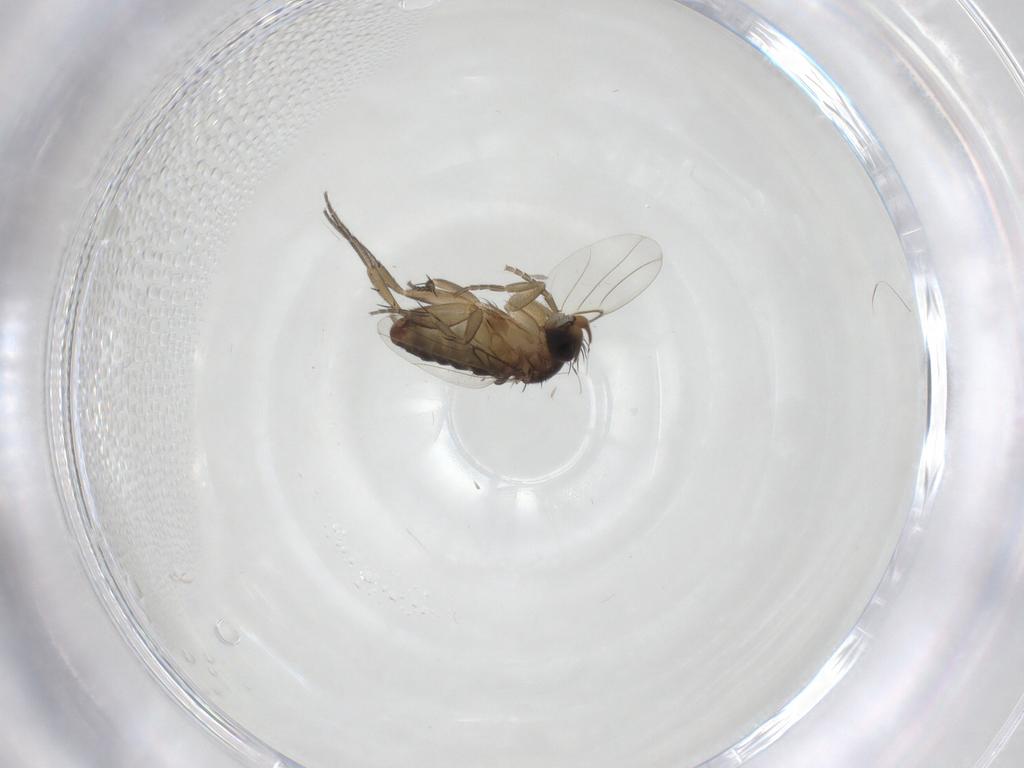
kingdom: Animalia
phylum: Arthropoda
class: Insecta
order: Diptera
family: Phoridae
